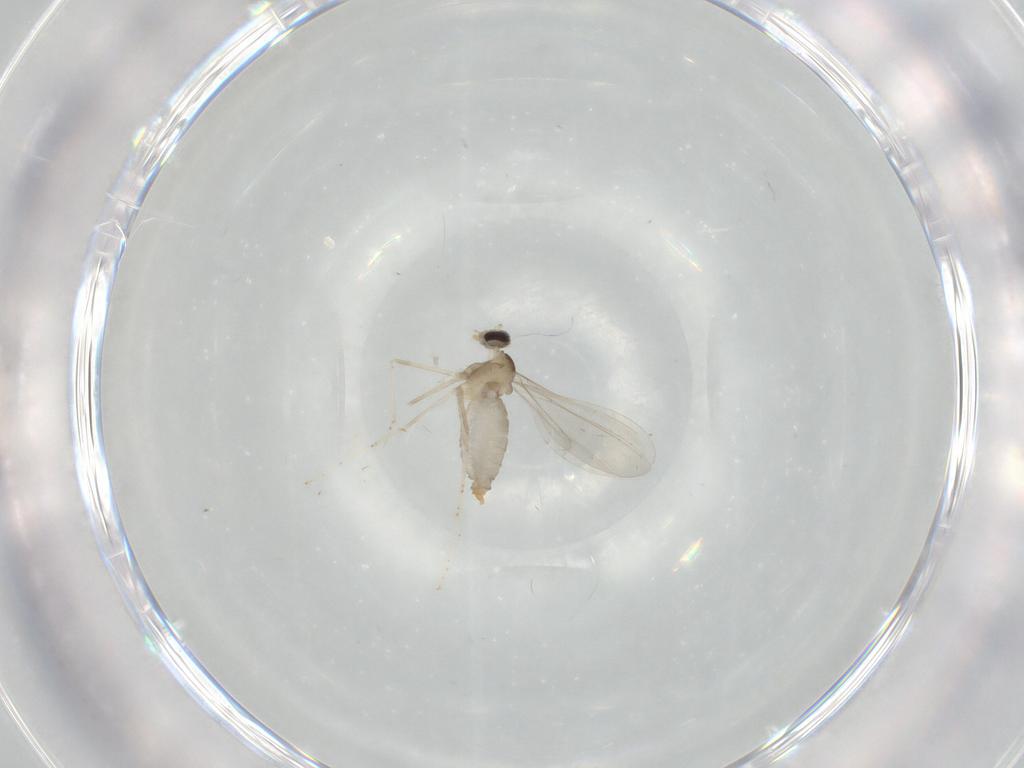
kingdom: Animalia
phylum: Arthropoda
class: Insecta
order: Diptera
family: Cecidomyiidae
